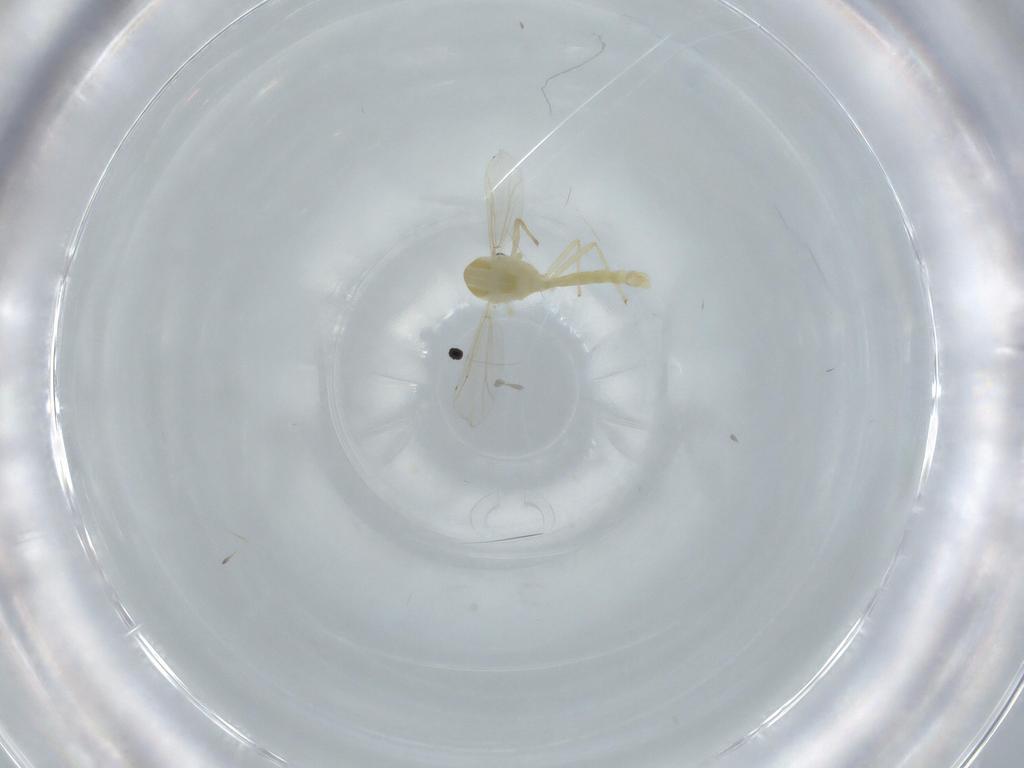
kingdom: Animalia
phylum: Arthropoda
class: Insecta
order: Diptera
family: Chironomidae
